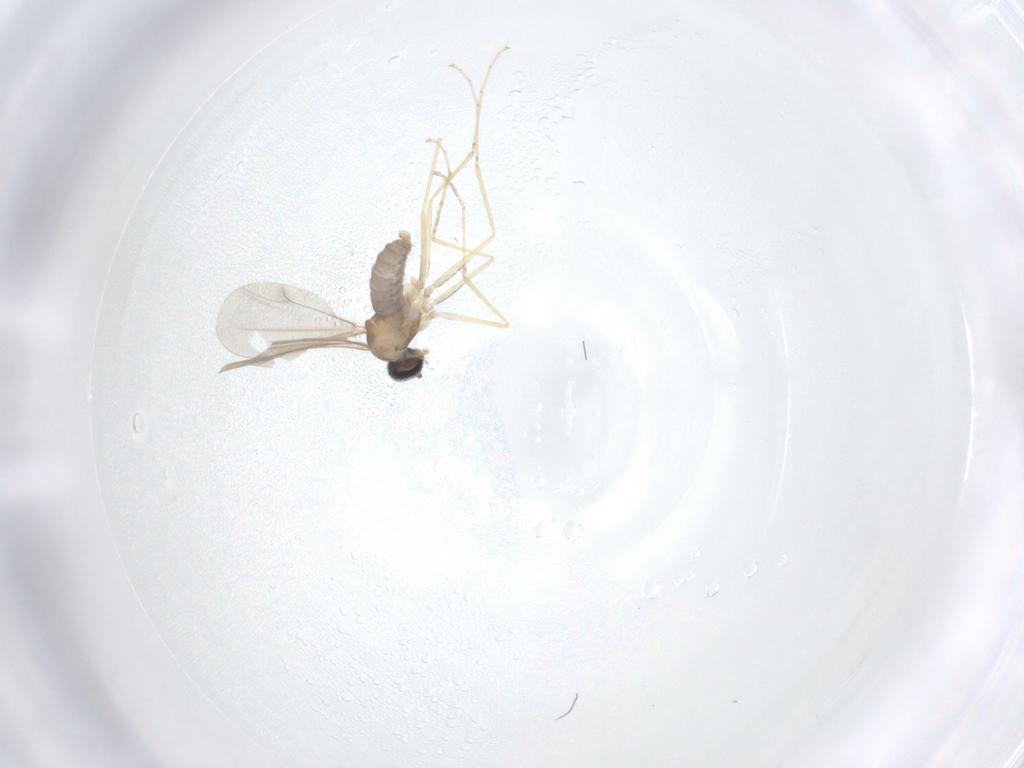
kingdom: Animalia
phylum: Arthropoda
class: Insecta
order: Diptera
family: Cecidomyiidae
